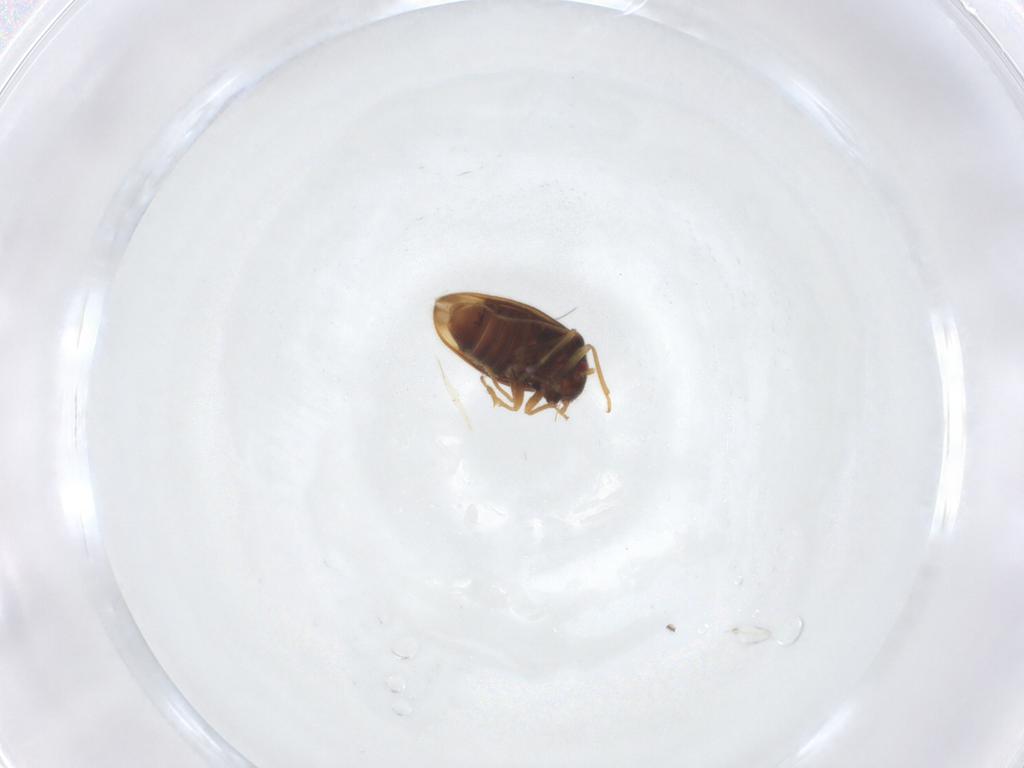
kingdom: Animalia
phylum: Arthropoda
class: Insecta
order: Hemiptera
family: Schizopteridae
